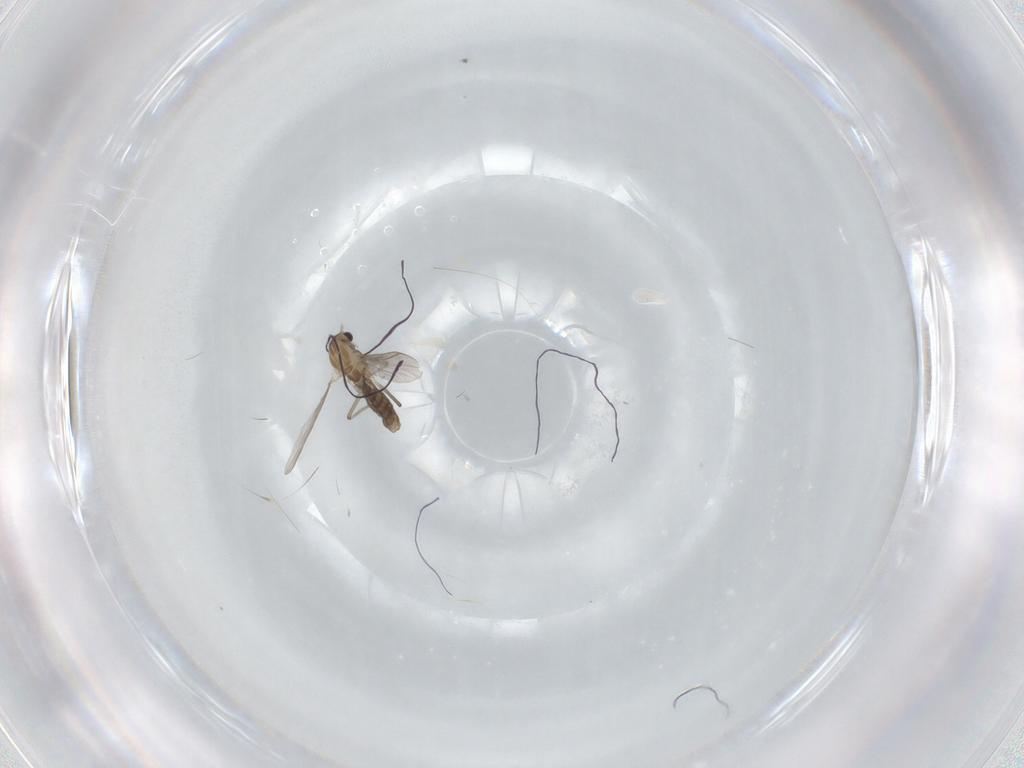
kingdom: Animalia
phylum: Arthropoda
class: Insecta
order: Diptera
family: Chironomidae
